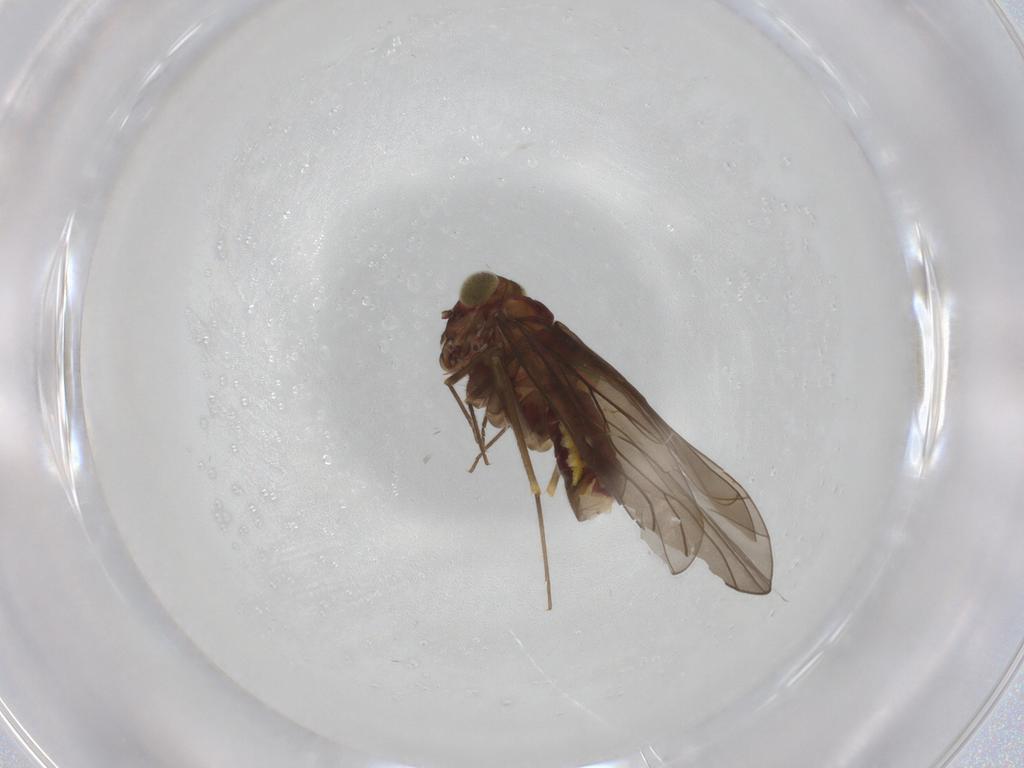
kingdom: Animalia
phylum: Arthropoda
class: Insecta
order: Psocodea
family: Philotarsidae
